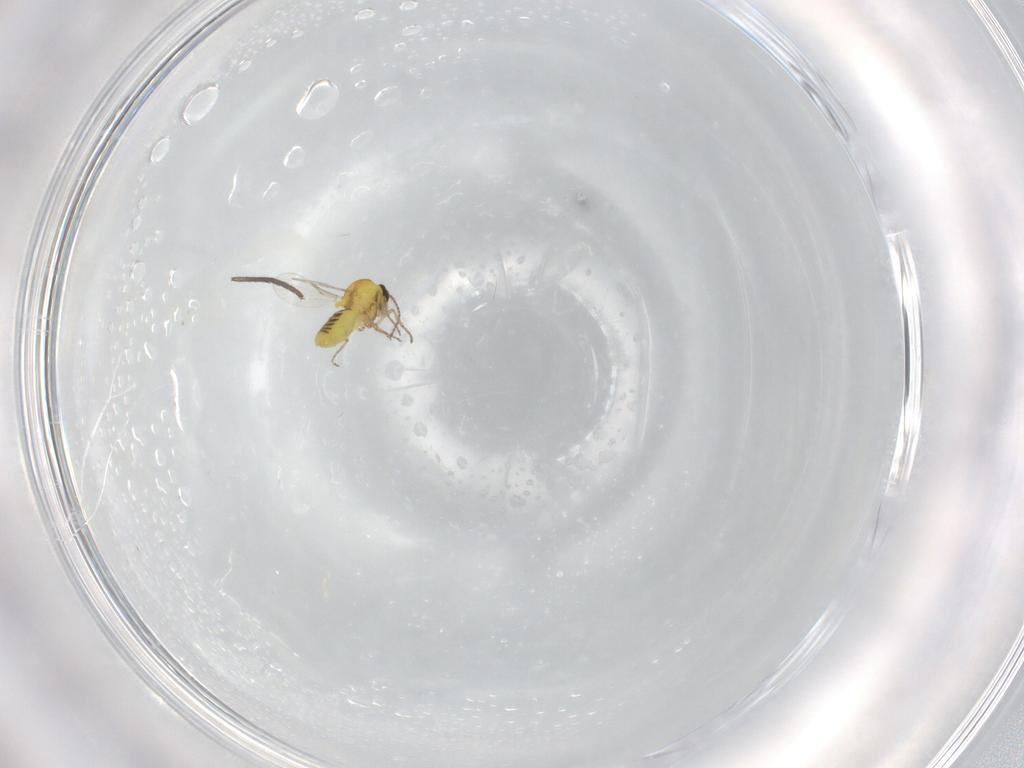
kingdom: Animalia
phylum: Arthropoda
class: Insecta
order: Diptera
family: Ceratopogonidae
